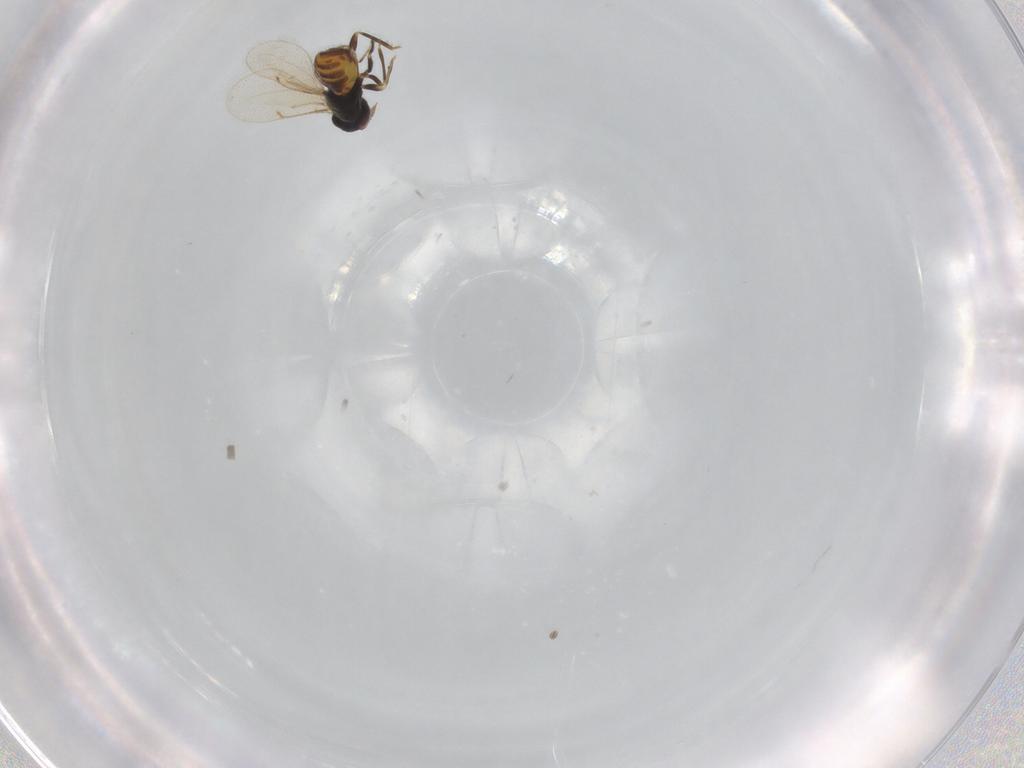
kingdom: Animalia
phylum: Arthropoda
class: Insecta
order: Hymenoptera
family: Eurytomidae
